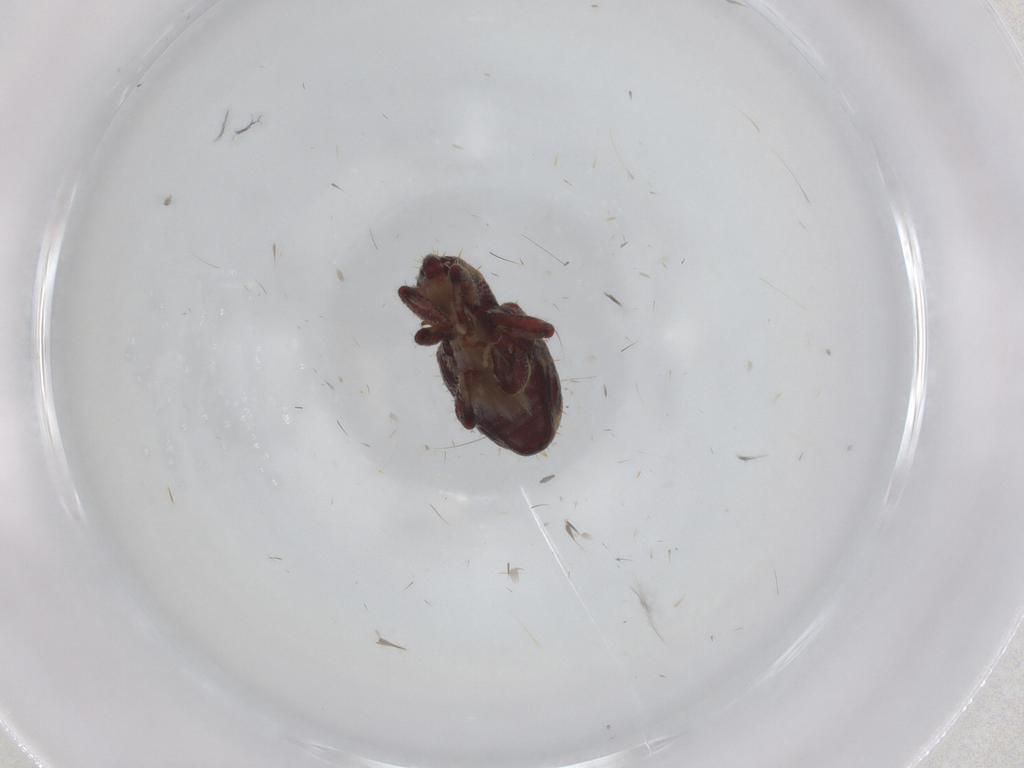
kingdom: Animalia
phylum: Arthropoda
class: Insecta
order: Coleoptera
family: Curculionidae
